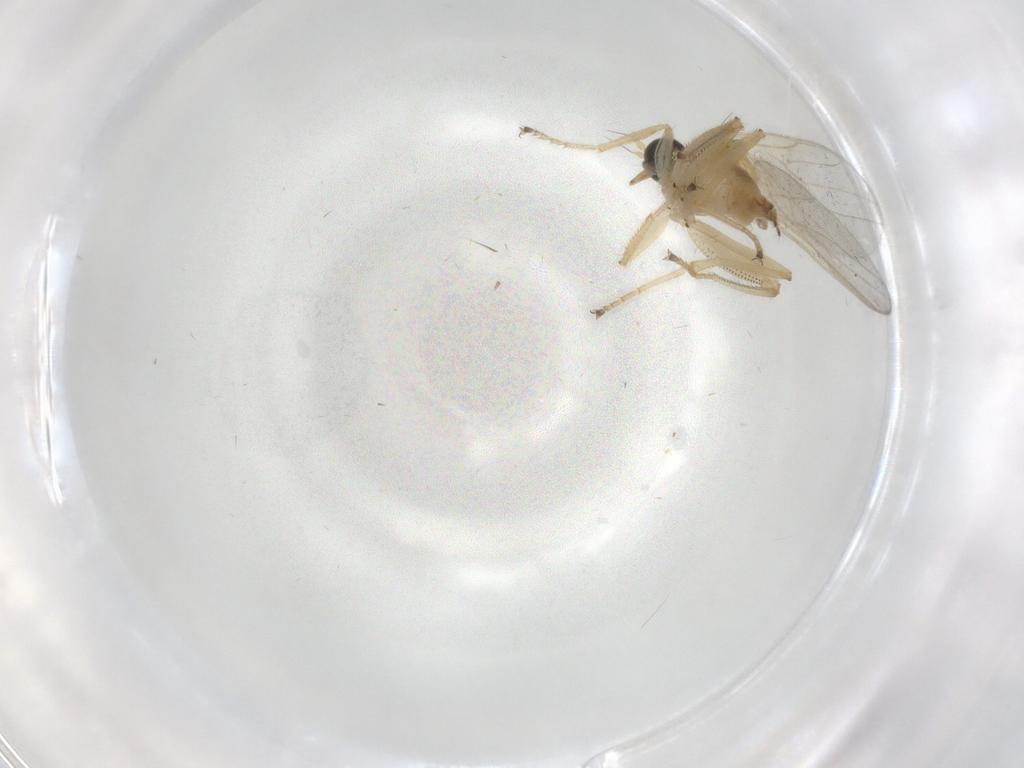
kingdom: Animalia
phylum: Arthropoda
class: Insecta
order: Diptera
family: Hybotidae
